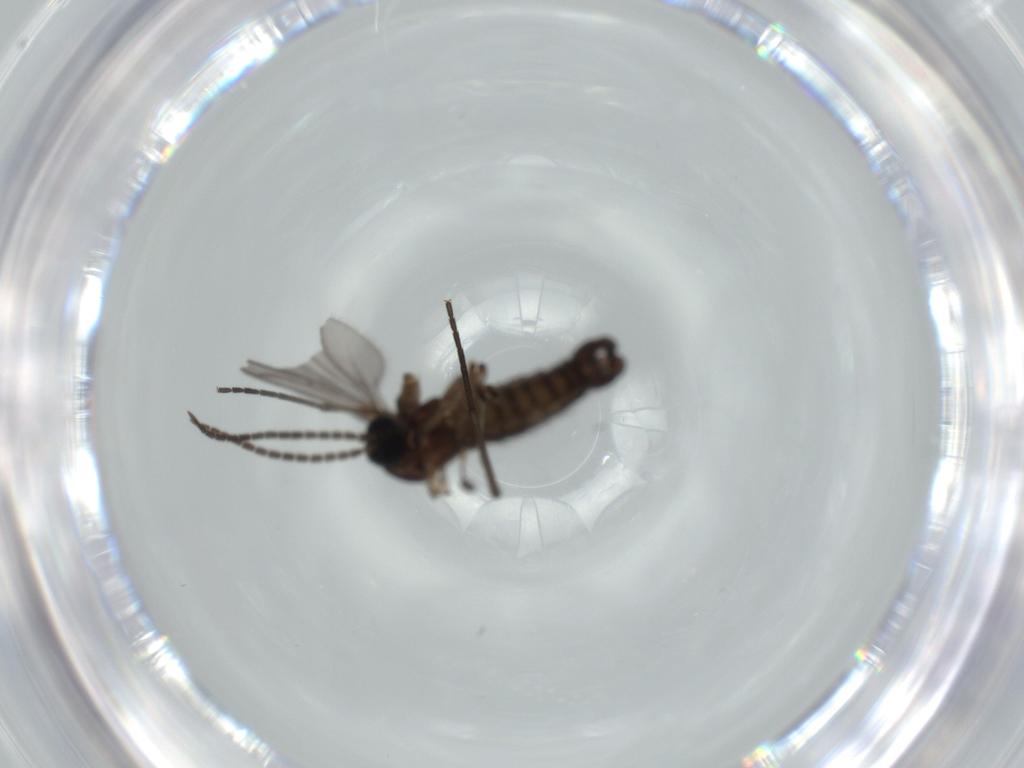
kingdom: Animalia
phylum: Arthropoda
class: Insecta
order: Diptera
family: Sciaridae
